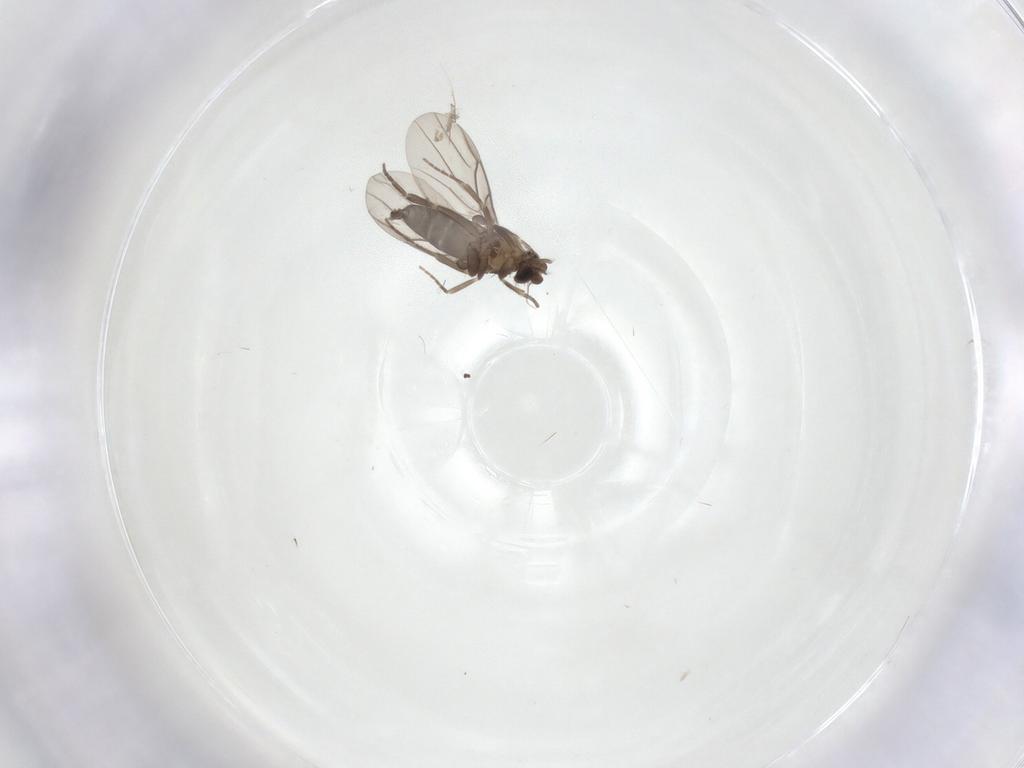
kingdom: Animalia
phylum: Arthropoda
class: Insecta
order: Diptera
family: Cecidomyiidae
